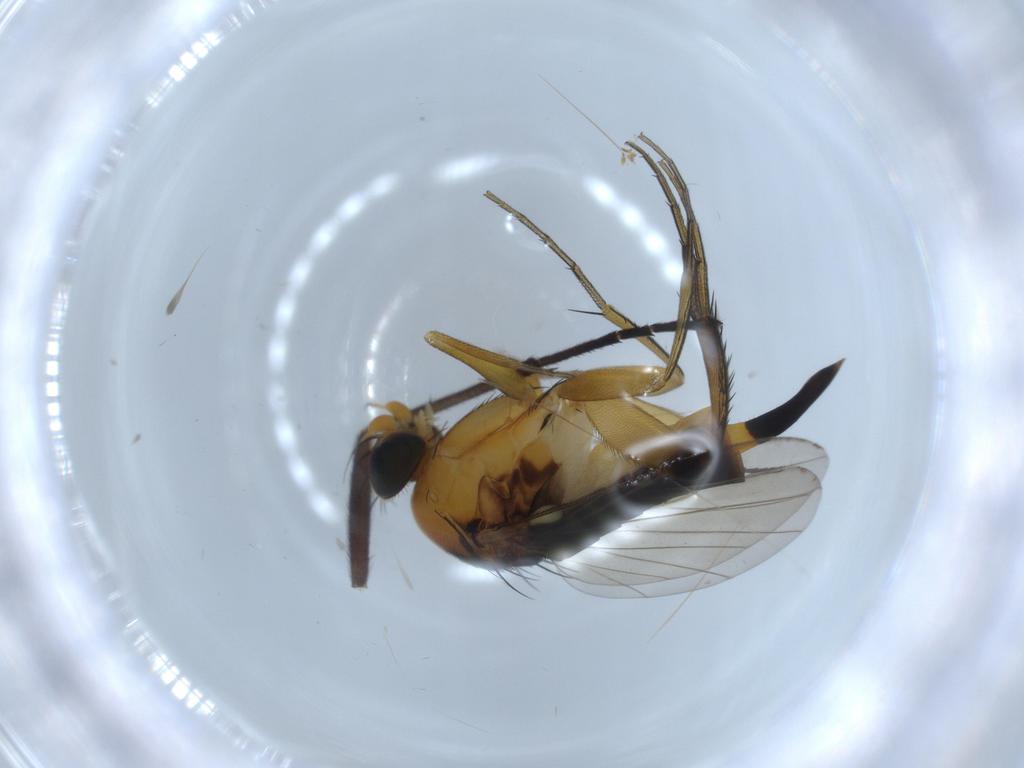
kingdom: Animalia
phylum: Arthropoda
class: Insecta
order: Diptera
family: Phoridae
